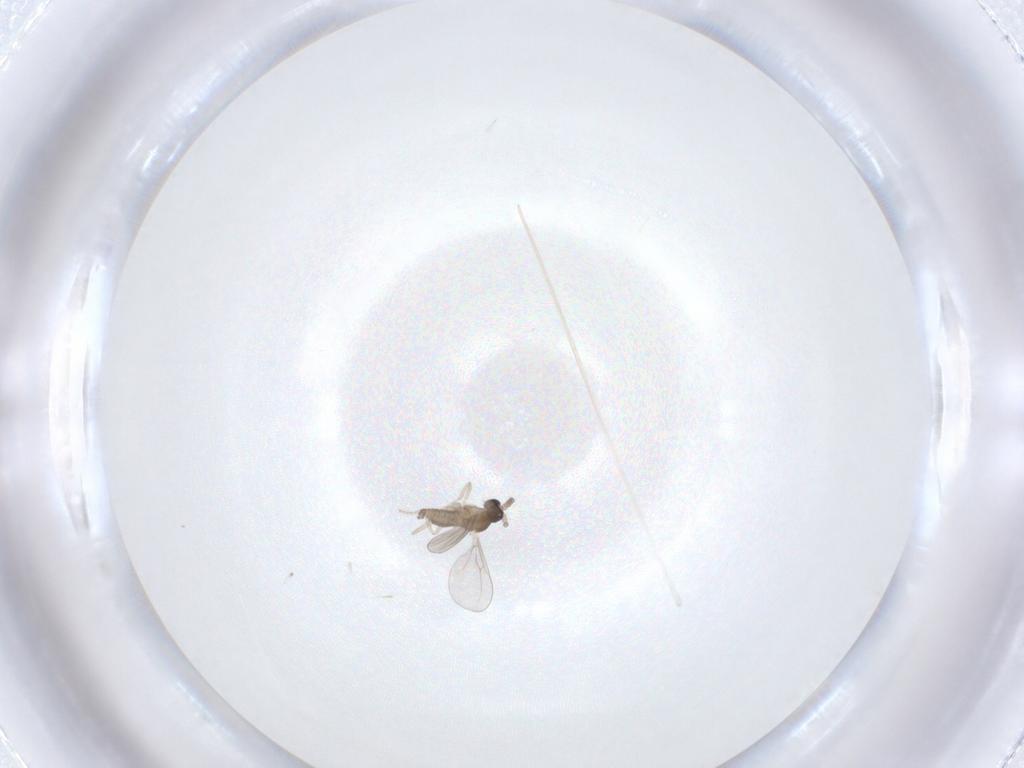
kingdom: Animalia
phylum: Arthropoda
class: Insecta
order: Diptera
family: Cecidomyiidae
